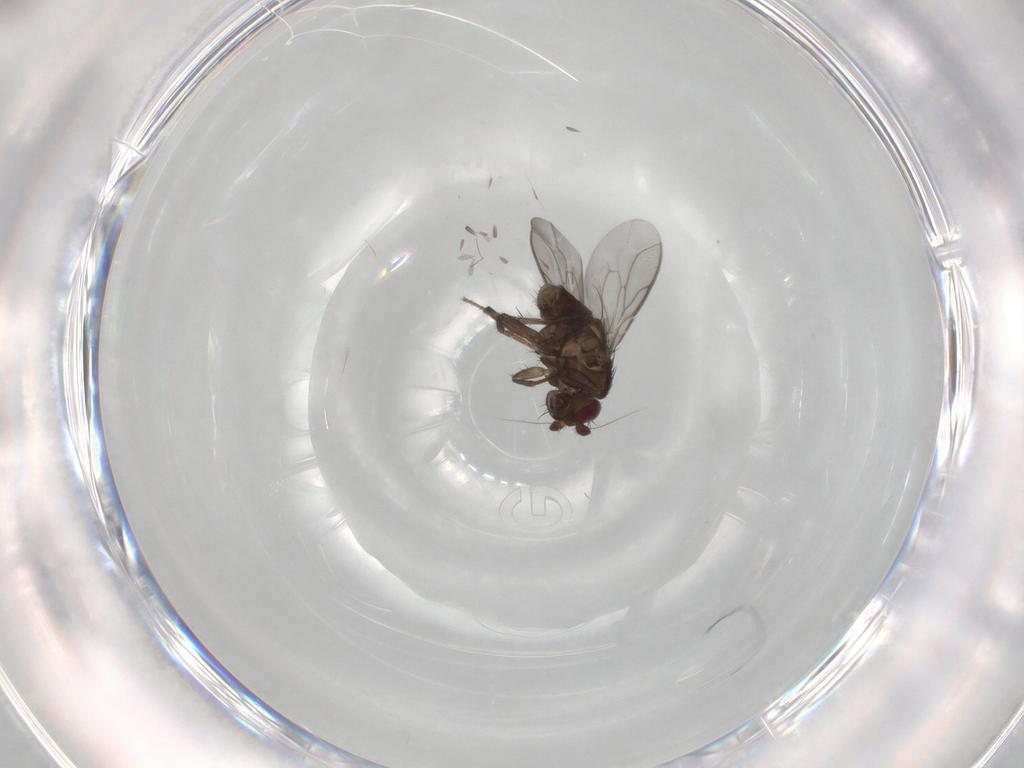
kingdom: Animalia
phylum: Arthropoda
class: Insecta
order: Diptera
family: Sphaeroceridae
